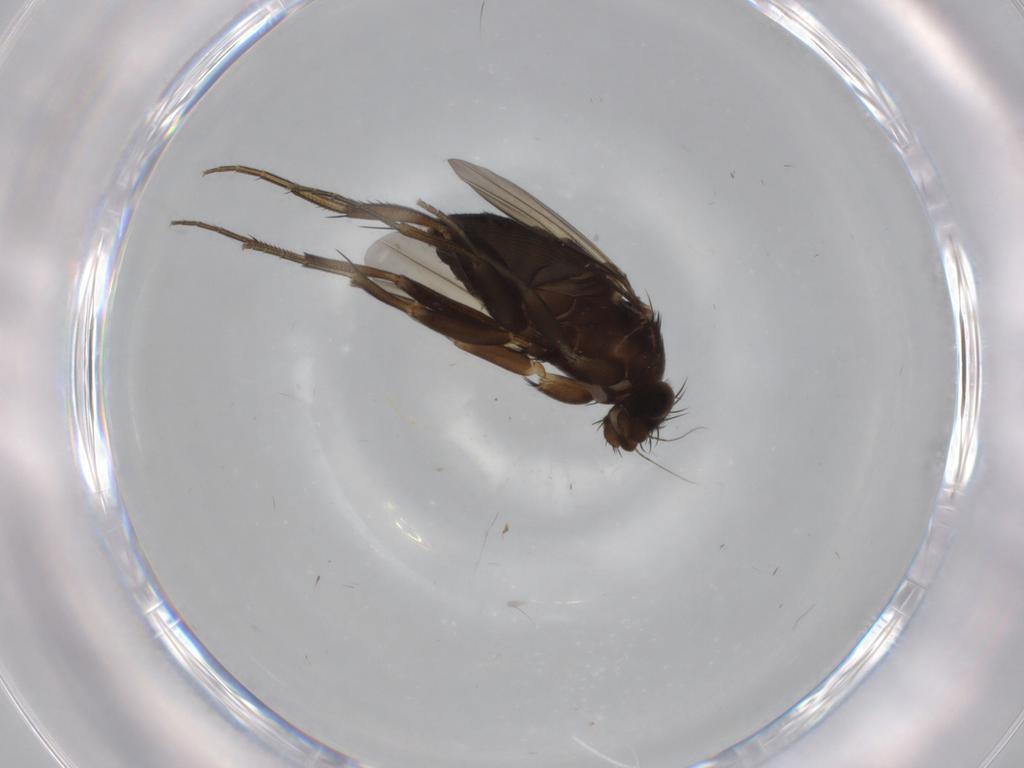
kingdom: Animalia
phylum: Arthropoda
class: Insecta
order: Diptera
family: Phoridae
